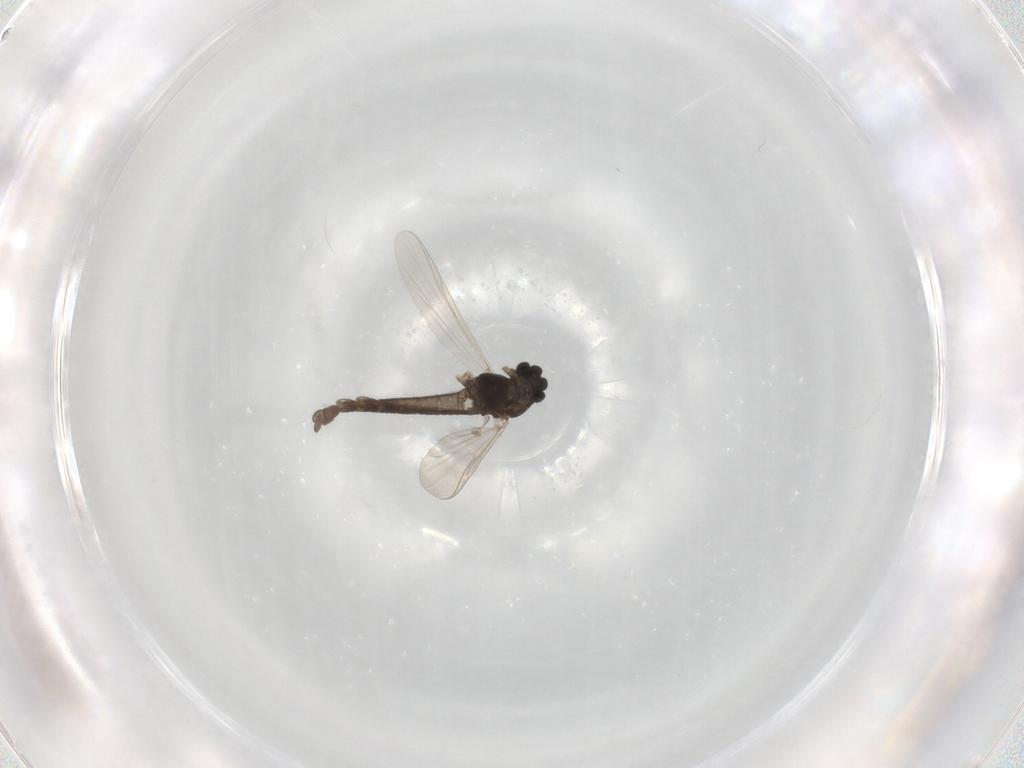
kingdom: Animalia
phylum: Arthropoda
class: Insecta
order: Diptera
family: Chironomidae
